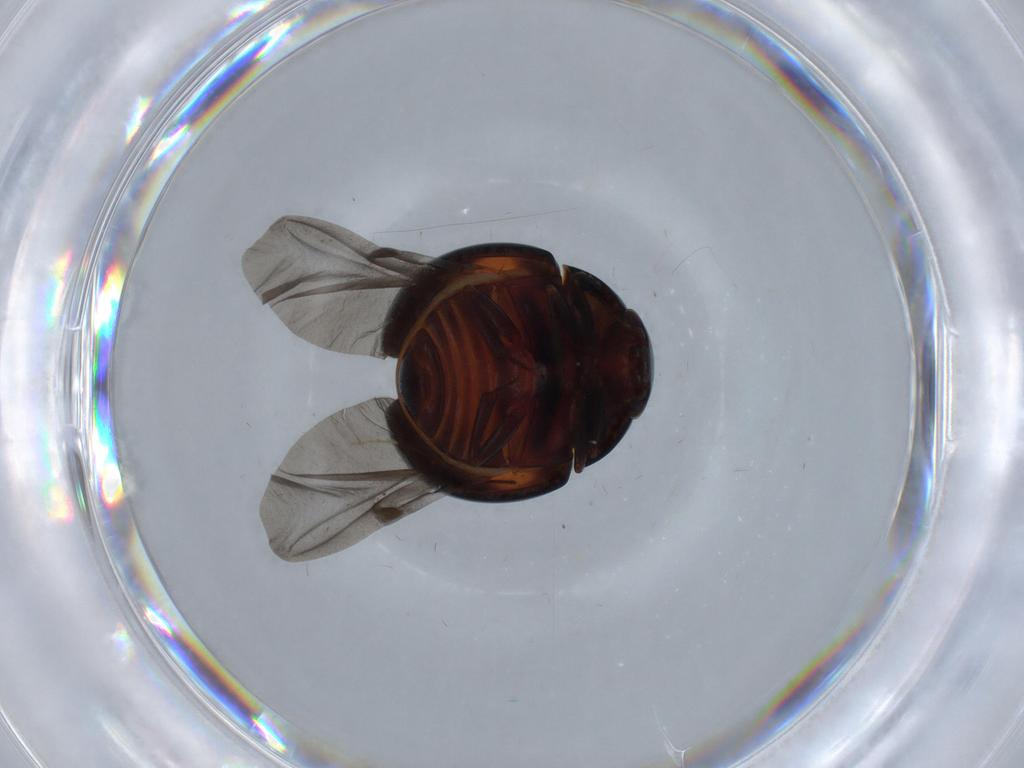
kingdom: Animalia
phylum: Arthropoda
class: Insecta
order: Coleoptera
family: Nitidulidae
